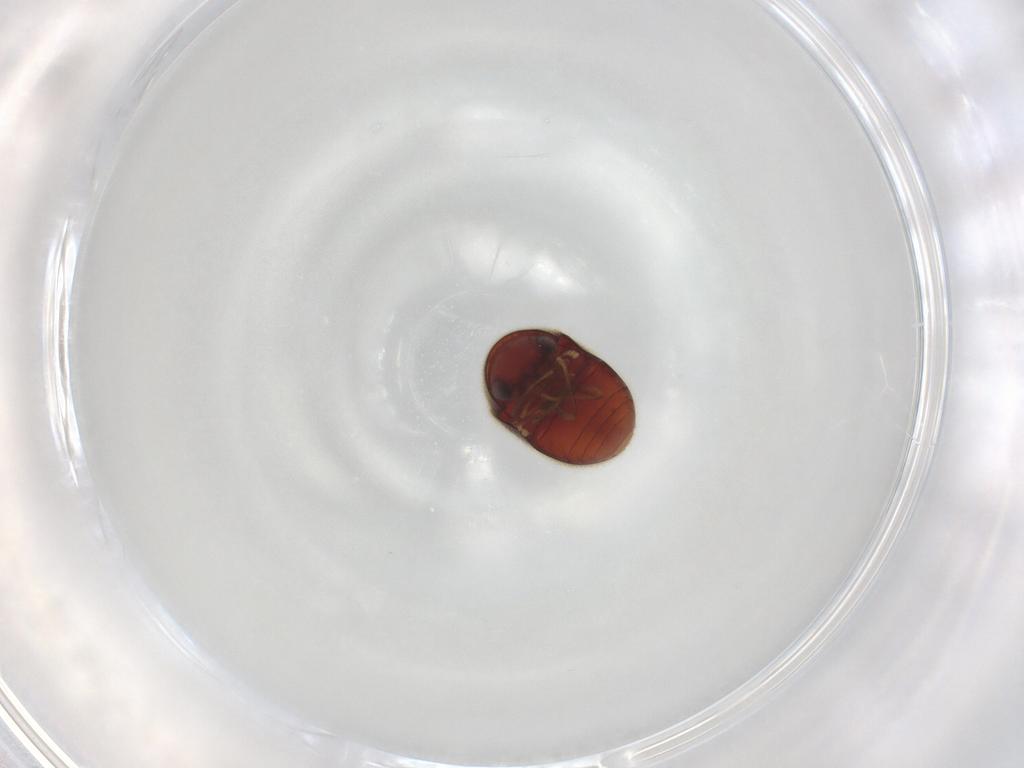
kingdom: Animalia
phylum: Arthropoda
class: Insecta
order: Coleoptera
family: Ptinidae
